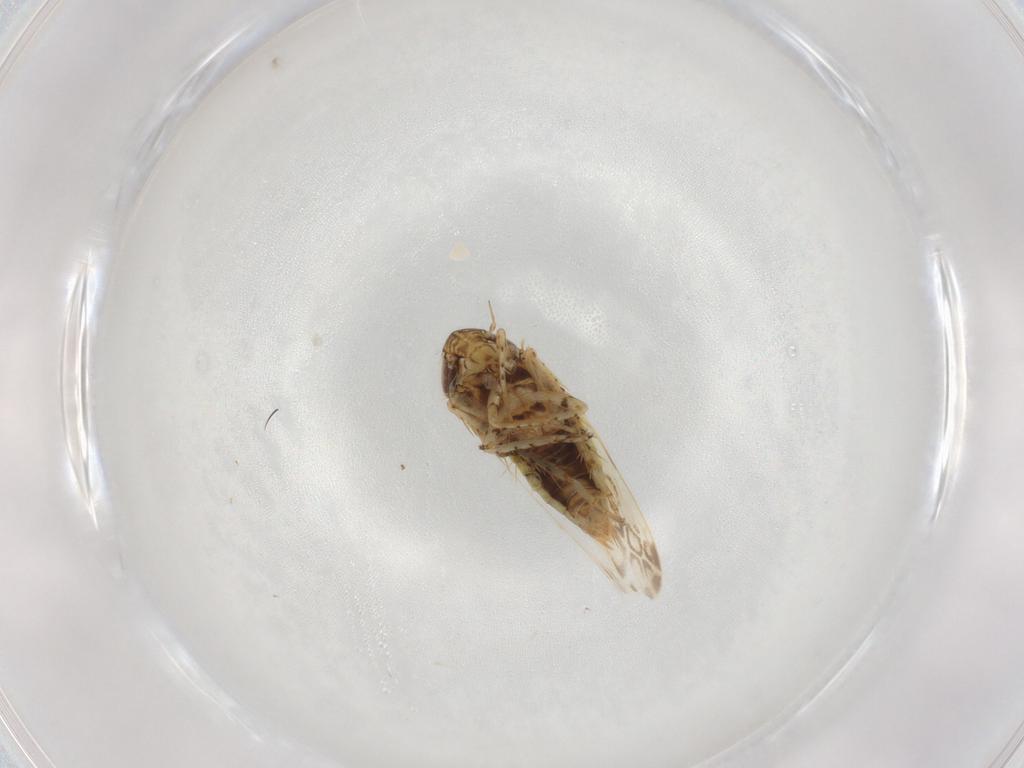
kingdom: Animalia
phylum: Arthropoda
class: Insecta
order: Hemiptera
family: Cicadellidae
